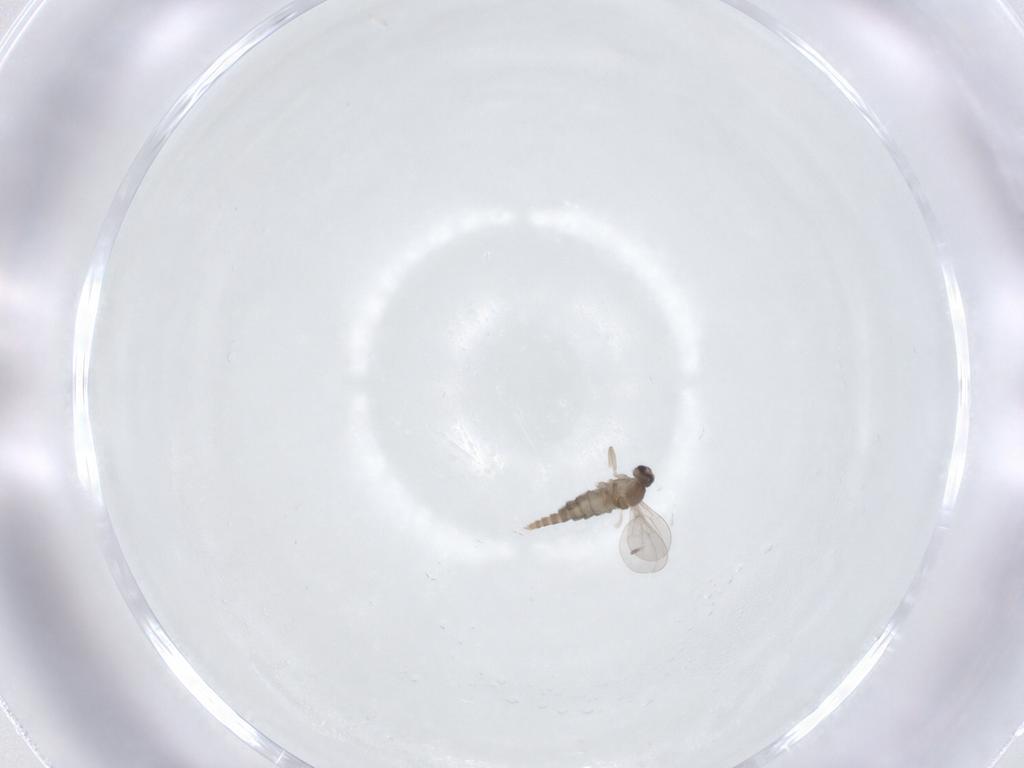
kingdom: Animalia
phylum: Arthropoda
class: Insecta
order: Diptera
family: Cecidomyiidae
